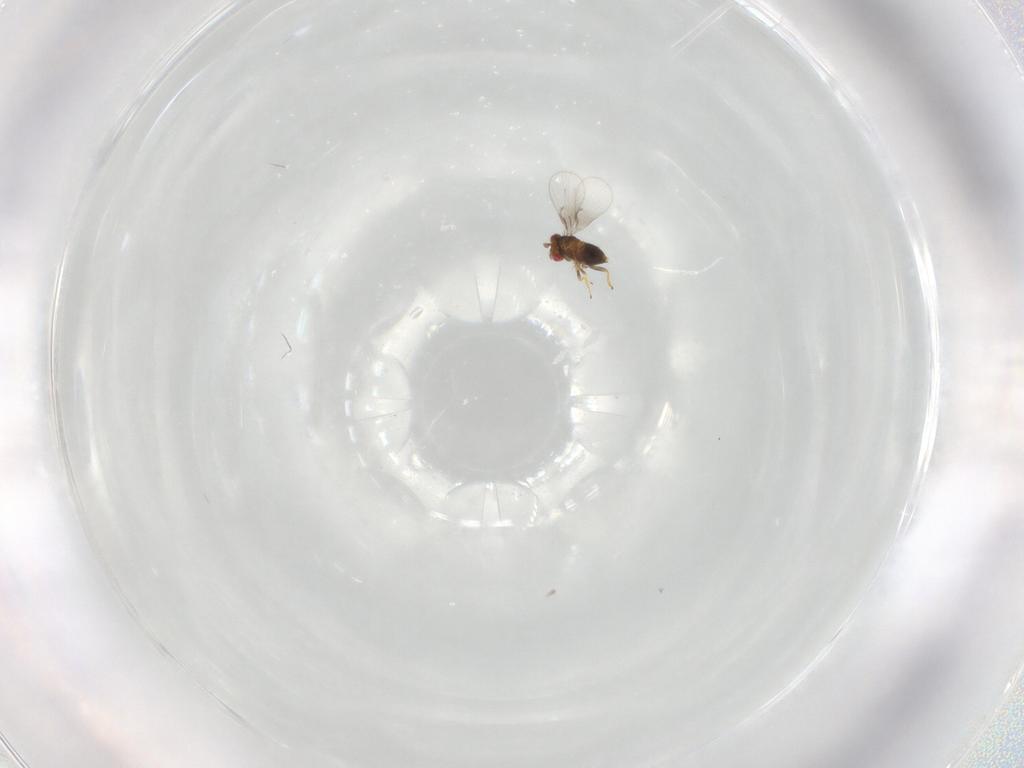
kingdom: Animalia
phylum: Arthropoda
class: Insecta
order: Hymenoptera
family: Trichogrammatidae
